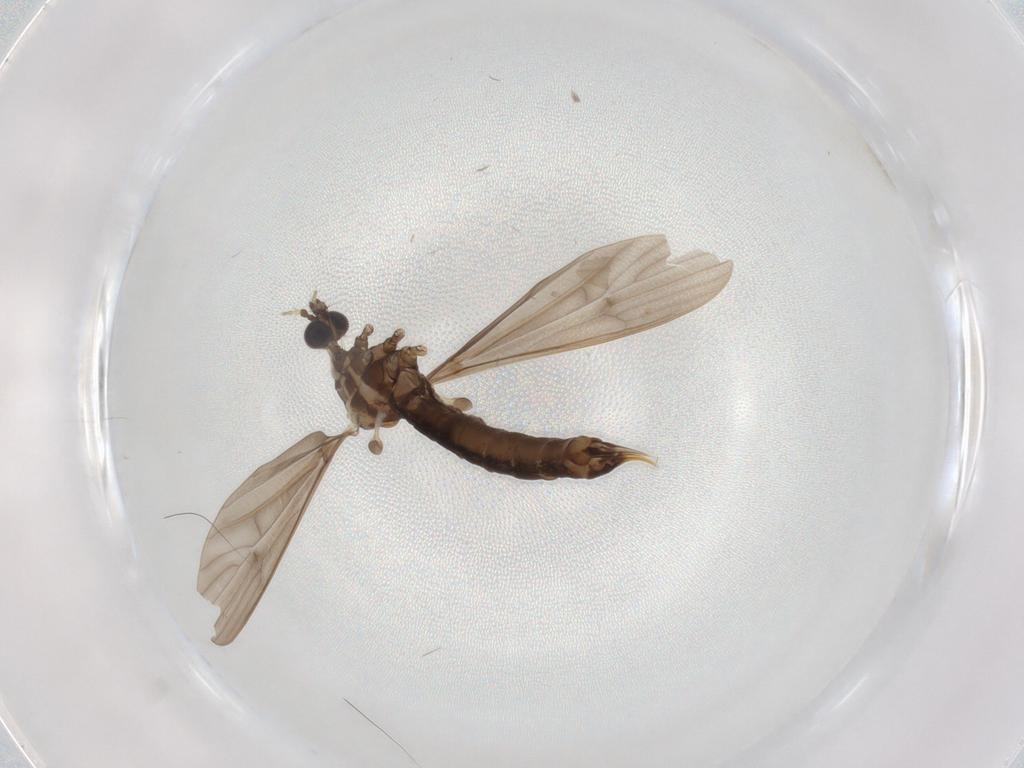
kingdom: Animalia
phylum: Arthropoda
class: Insecta
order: Diptera
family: Limoniidae
